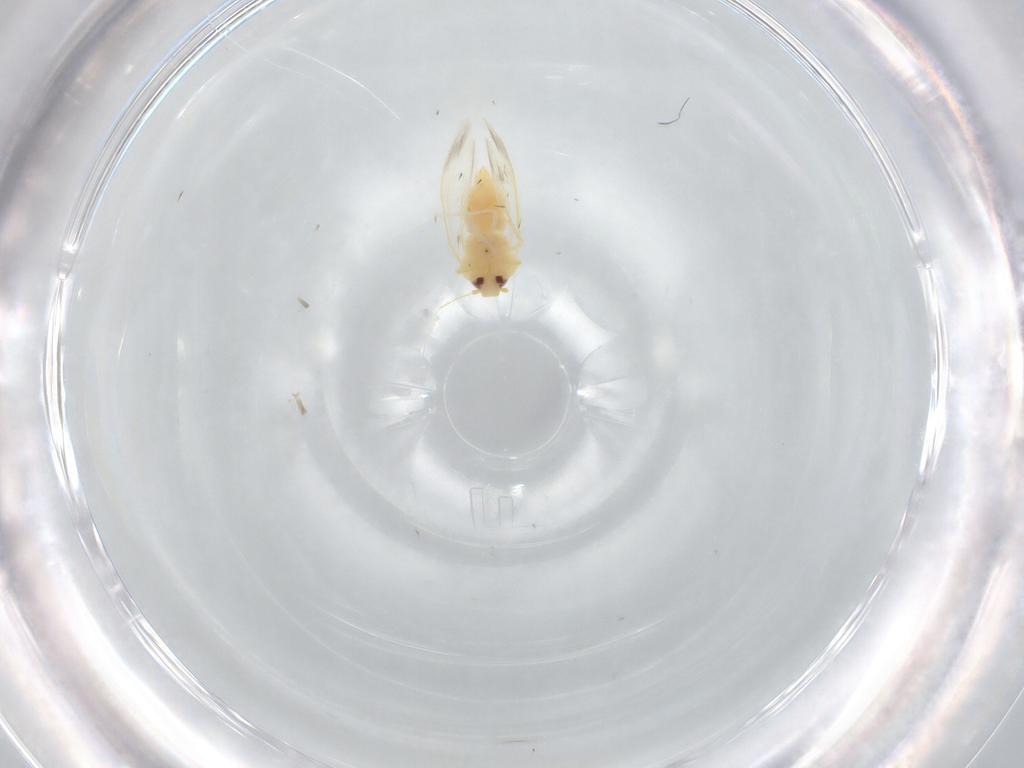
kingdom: Animalia
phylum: Arthropoda
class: Insecta
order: Hemiptera
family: Aleyrodidae
